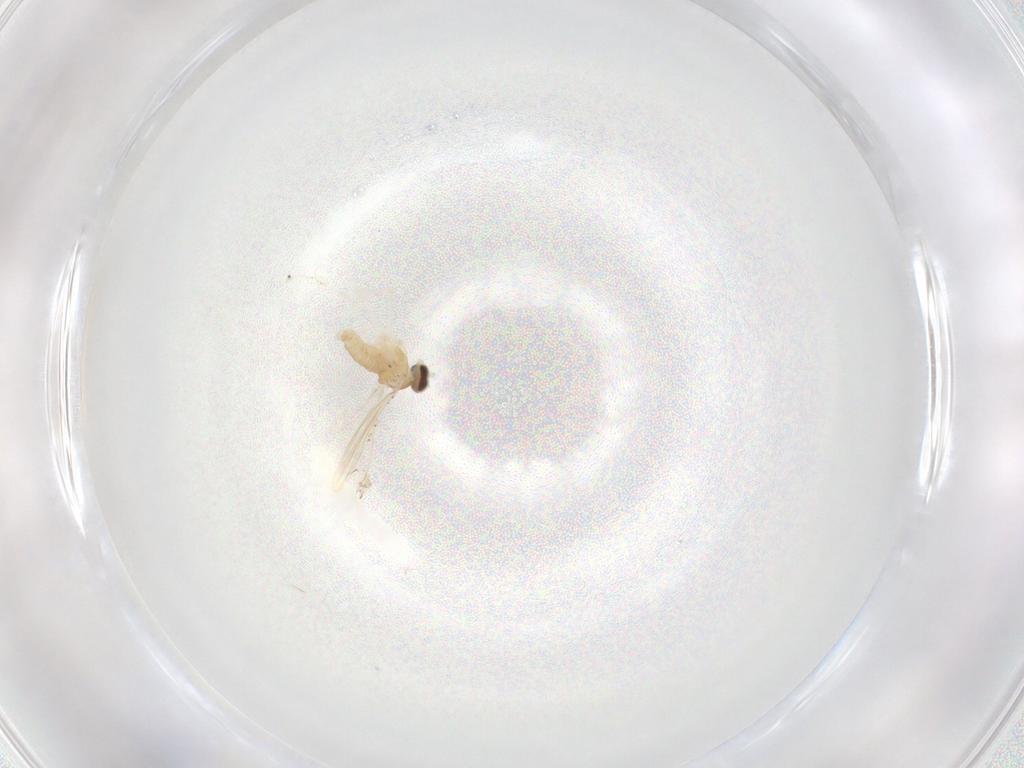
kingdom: Animalia
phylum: Arthropoda
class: Insecta
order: Diptera
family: Cecidomyiidae
